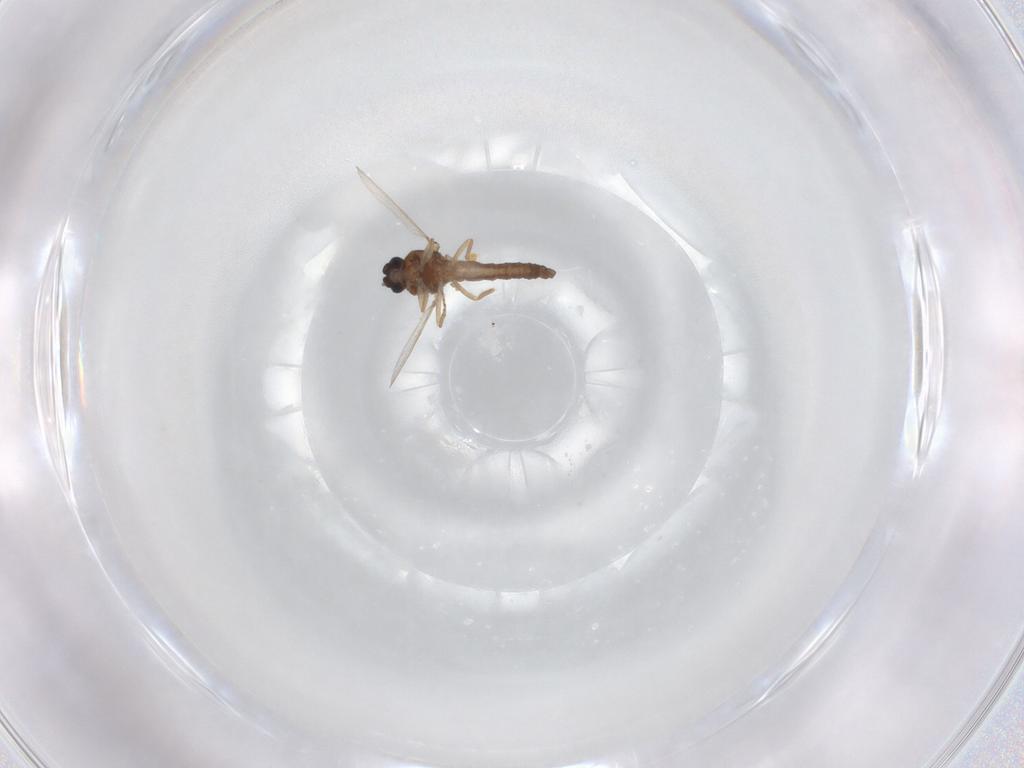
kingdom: Animalia
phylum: Arthropoda
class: Insecta
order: Diptera
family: Ceratopogonidae
